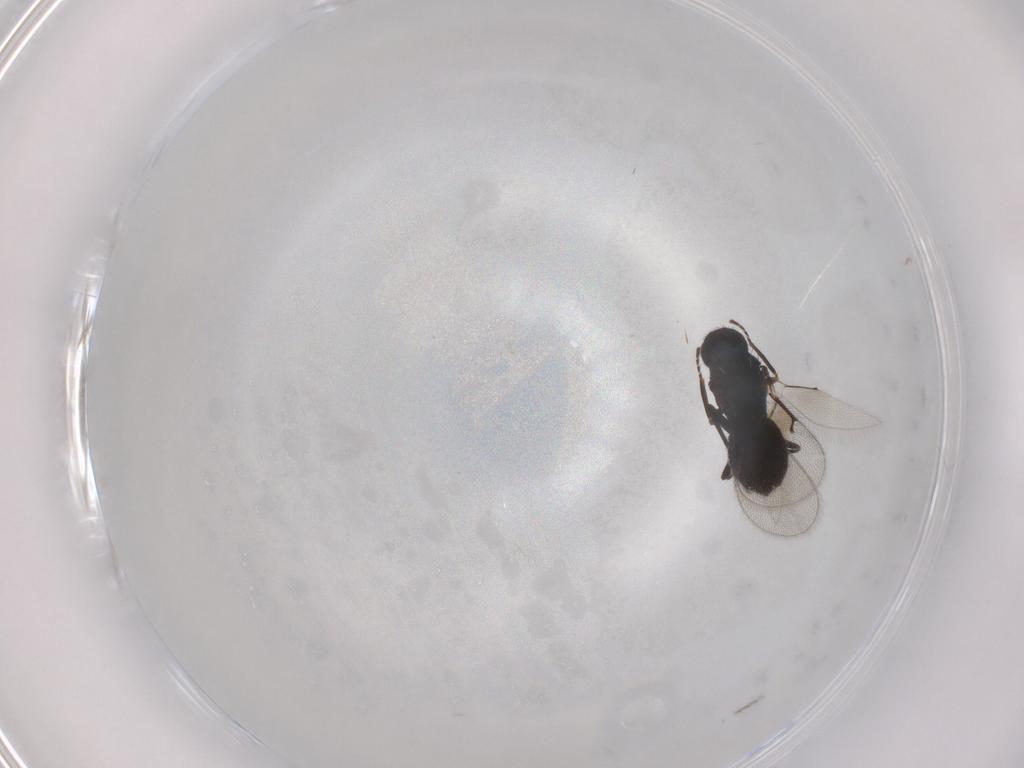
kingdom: Animalia
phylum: Arthropoda
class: Insecta
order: Hymenoptera
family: Eulophidae
